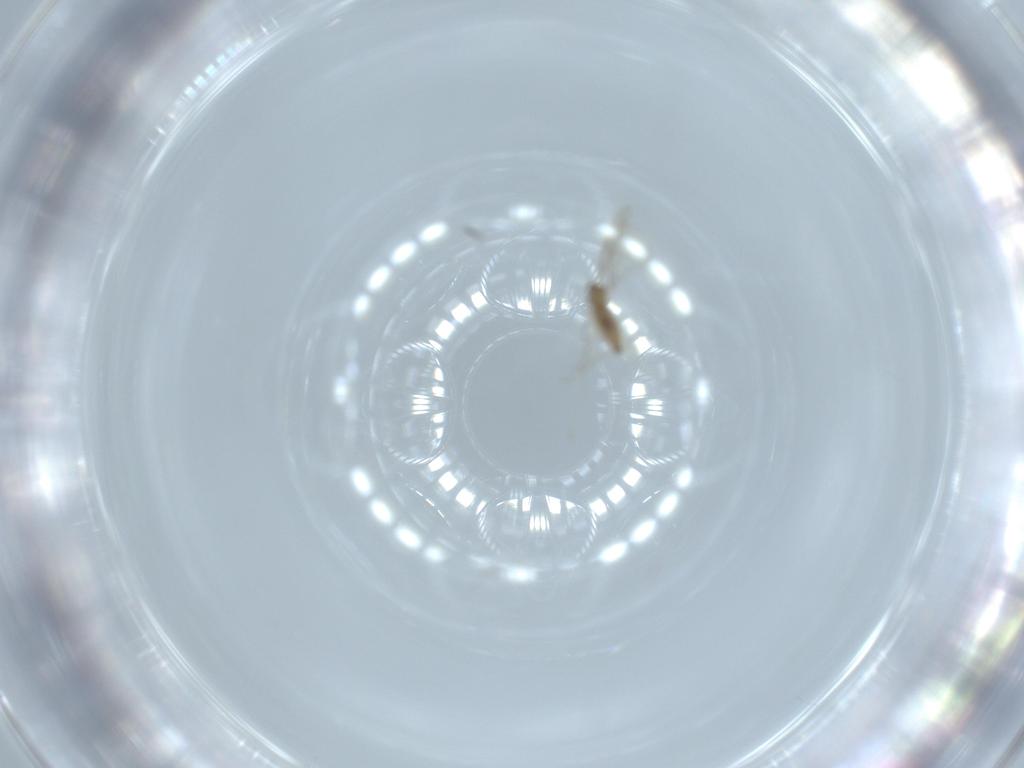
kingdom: Animalia
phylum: Arthropoda
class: Insecta
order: Diptera
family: Cecidomyiidae
